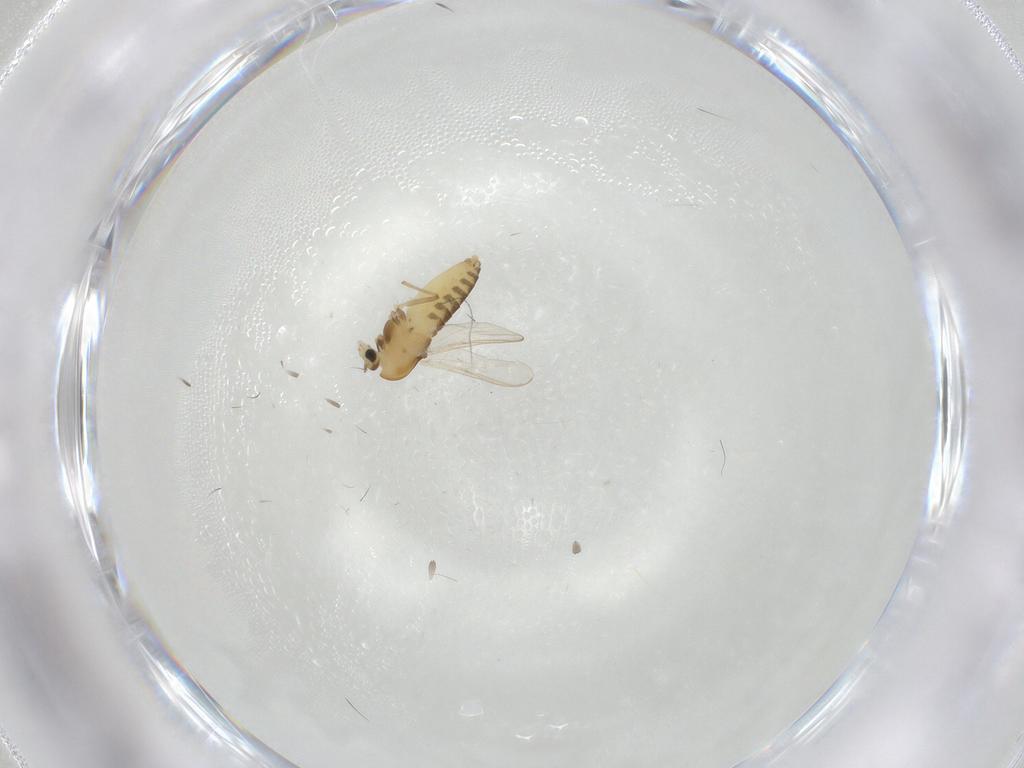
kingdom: Animalia
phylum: Arthropoda
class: Insecta
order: Diptera
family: Chironomidae
